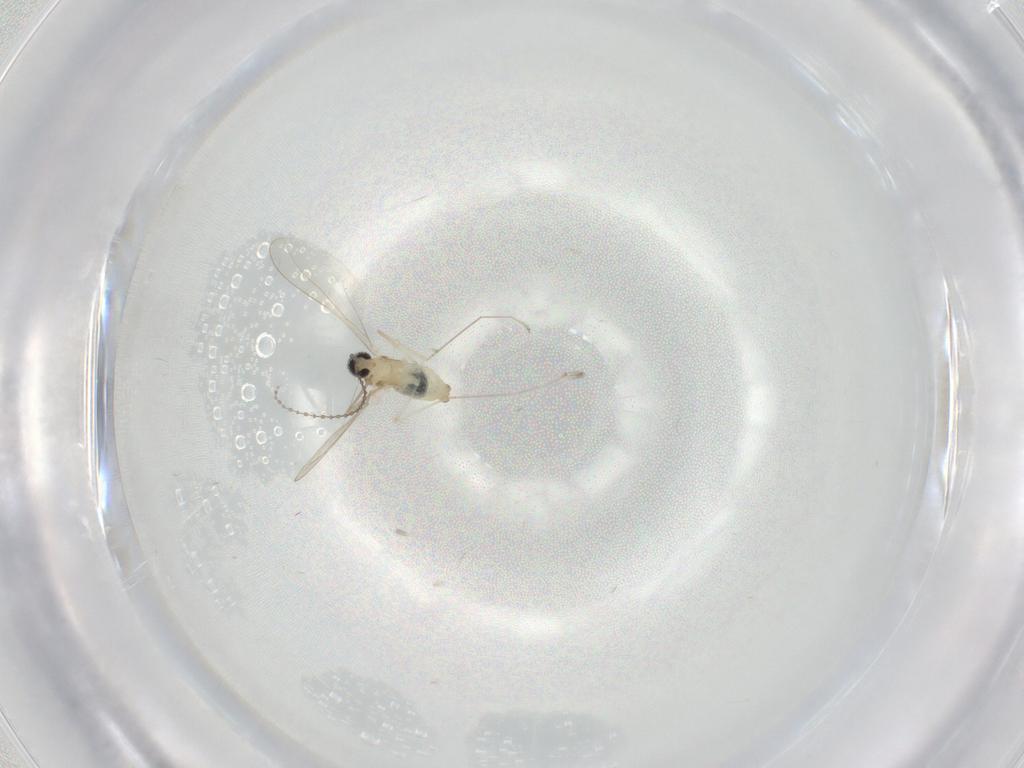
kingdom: Animalia
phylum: Arthropoda
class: Insecta
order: Diptera
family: Cecidomyiidae
